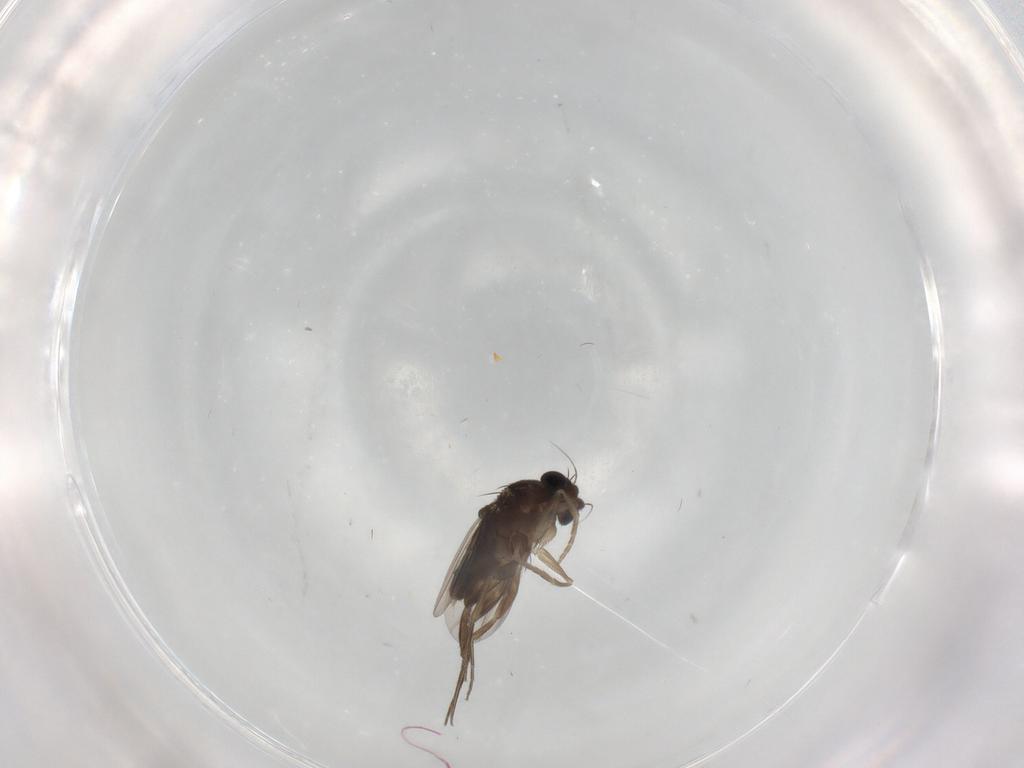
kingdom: Animalia
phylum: Arthropoda
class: Insecta
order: Diptera
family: Phoridae
